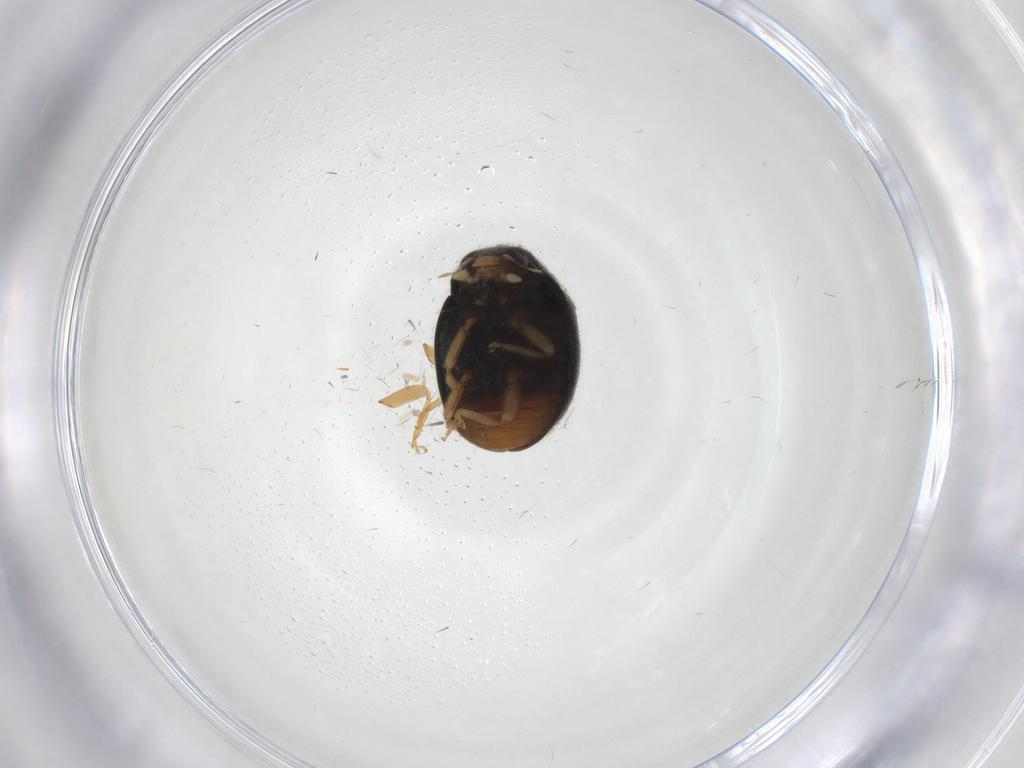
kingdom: Animalia
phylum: Arthropoda
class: Insecta
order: Coleoptera
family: Coccinellidae
